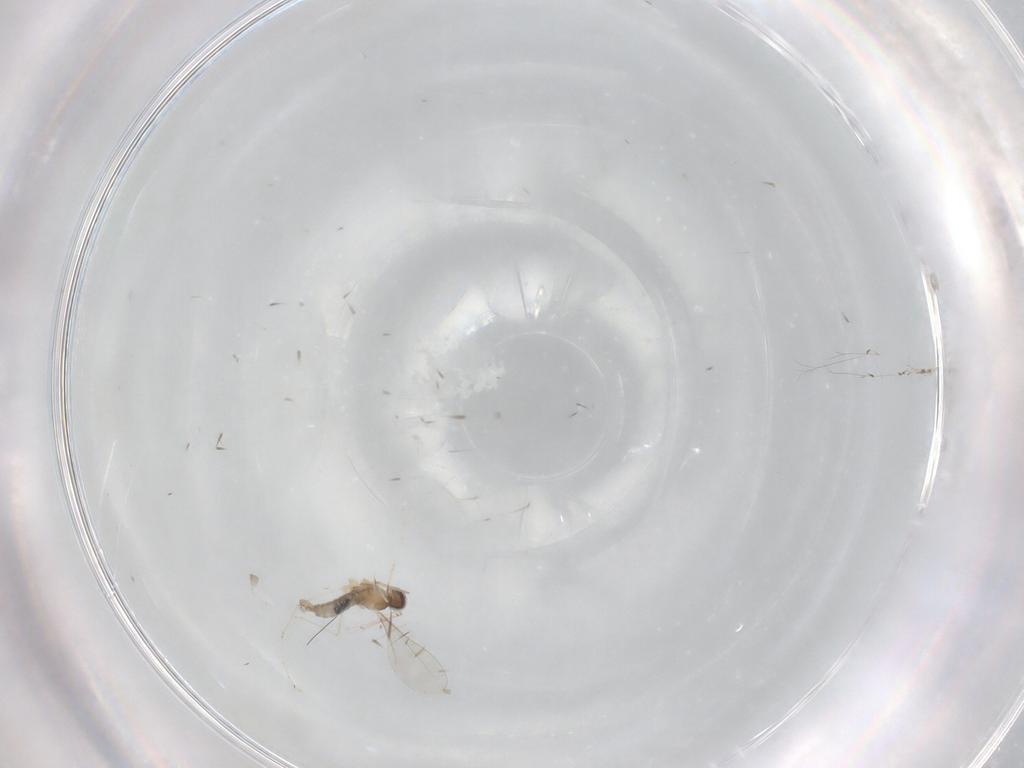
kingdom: Animalia
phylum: Arthropoda
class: Insecta
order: Diptera
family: Cecidomyiidae
